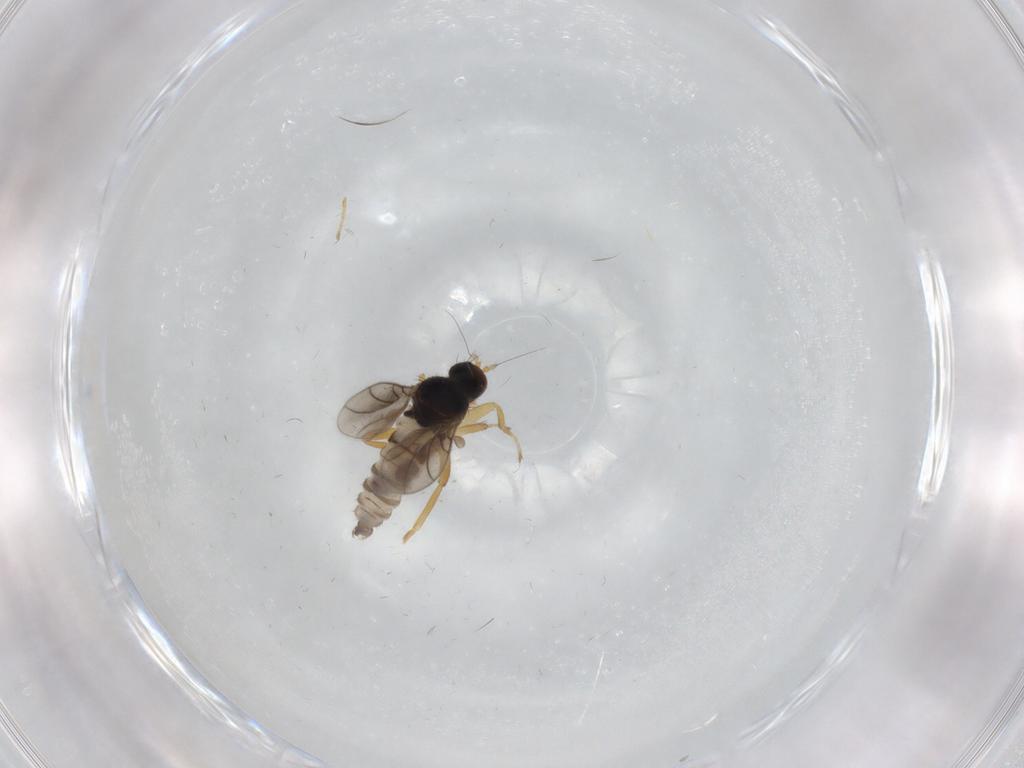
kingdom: Animalia
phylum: Arthropoda
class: Insecta
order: Diptera
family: Hybotidae
